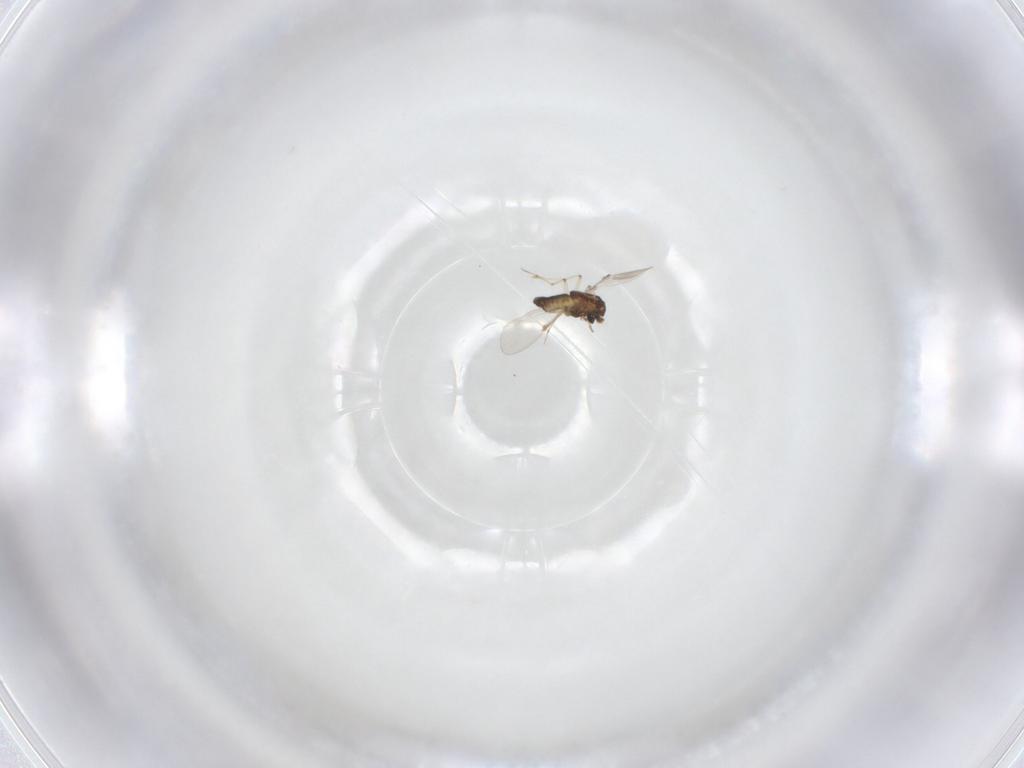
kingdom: Animalia
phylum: Arthropoda
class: Insecta
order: Diptera
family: Chironomidae
